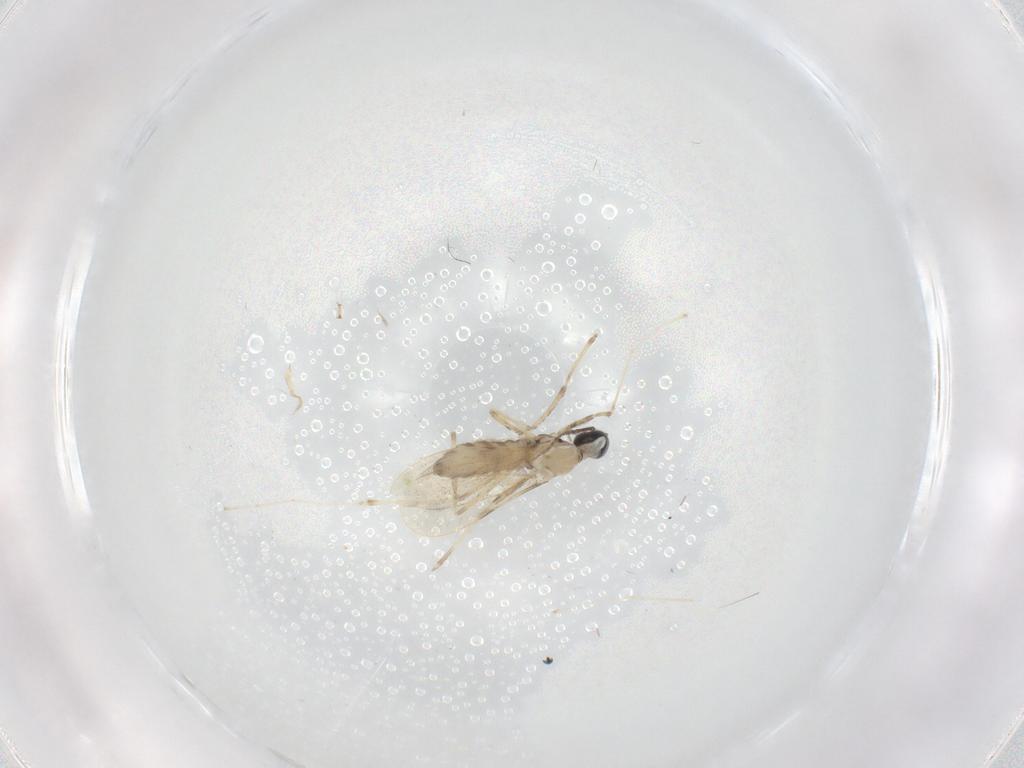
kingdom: Animalia
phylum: Arthropoda
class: Insecta
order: Diptera
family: Cecidomyiidae
